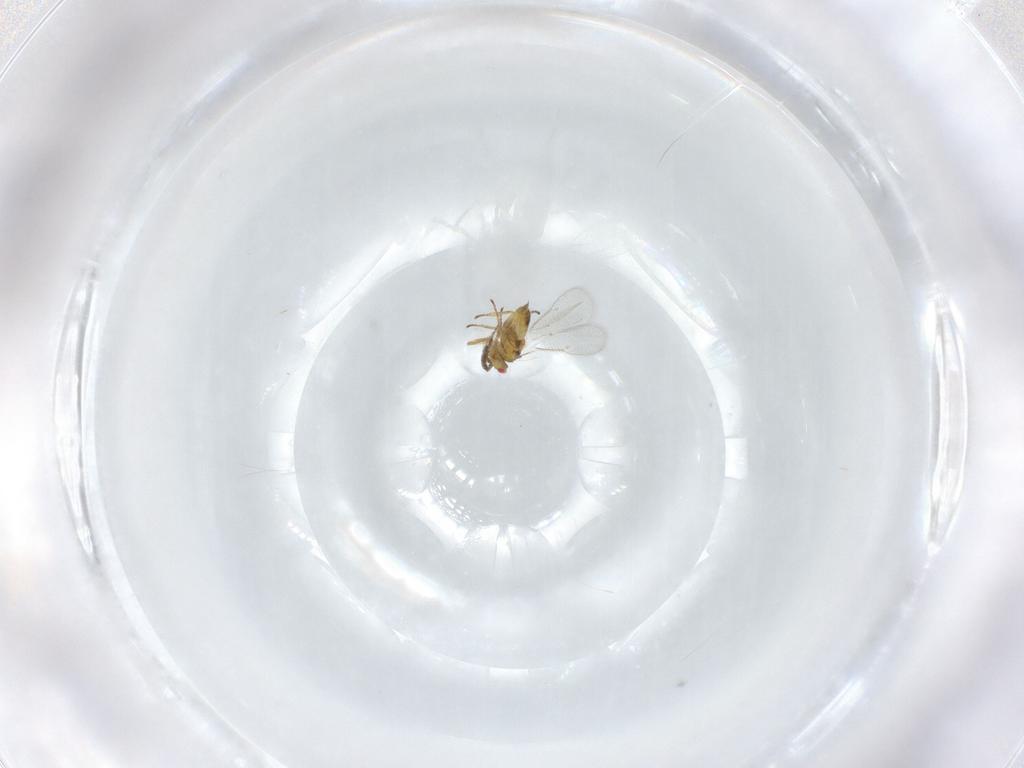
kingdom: Animalia
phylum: Arthropoda
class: Insecta
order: Hymenoptera
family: Eulophidae
